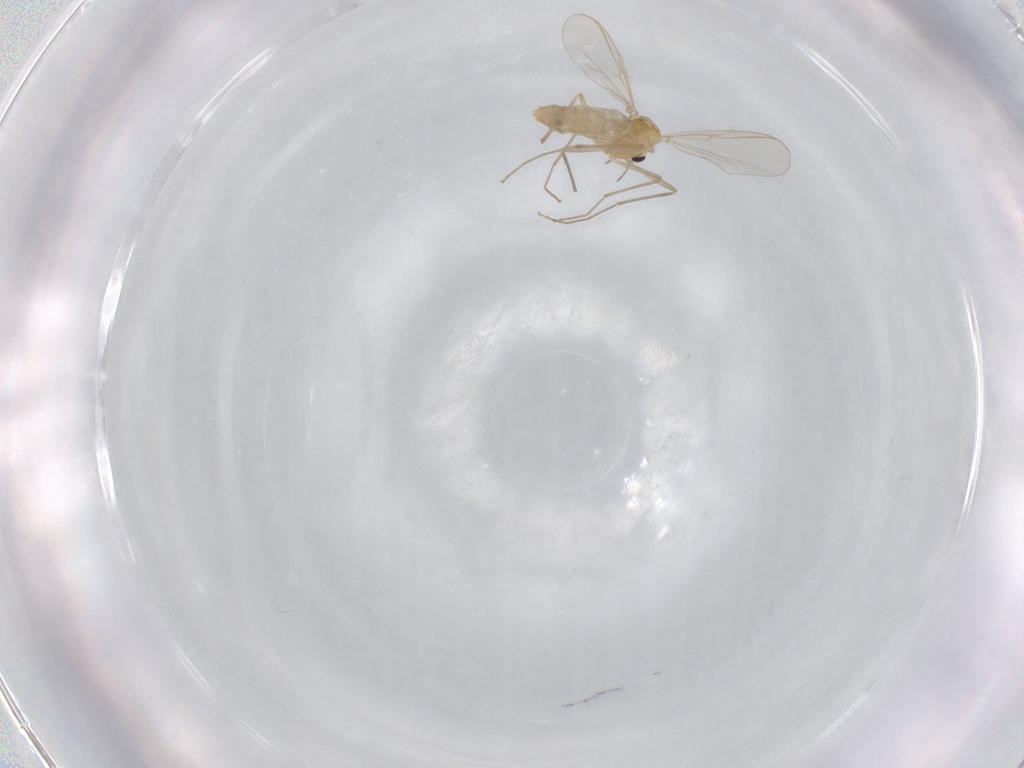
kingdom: Animalia
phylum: Arthropoda
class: Insecta
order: Diptera
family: Chironomidae
